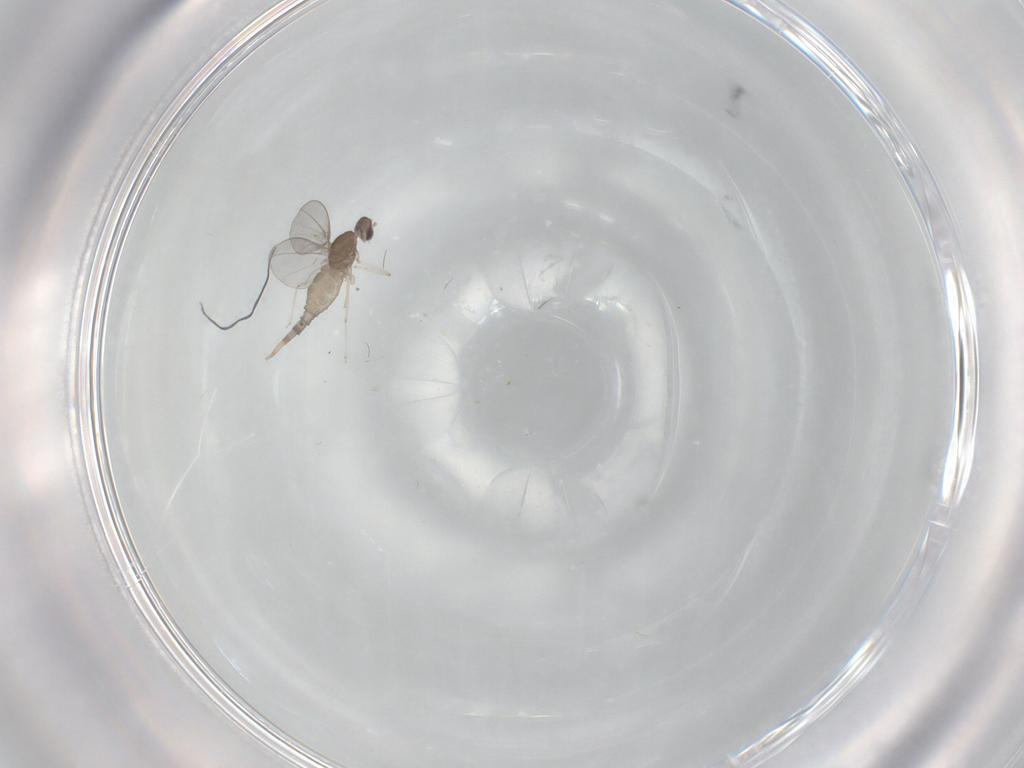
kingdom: Animalia
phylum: Arthropoda
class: Insecta
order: Diptera
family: Cecidomyiidae
